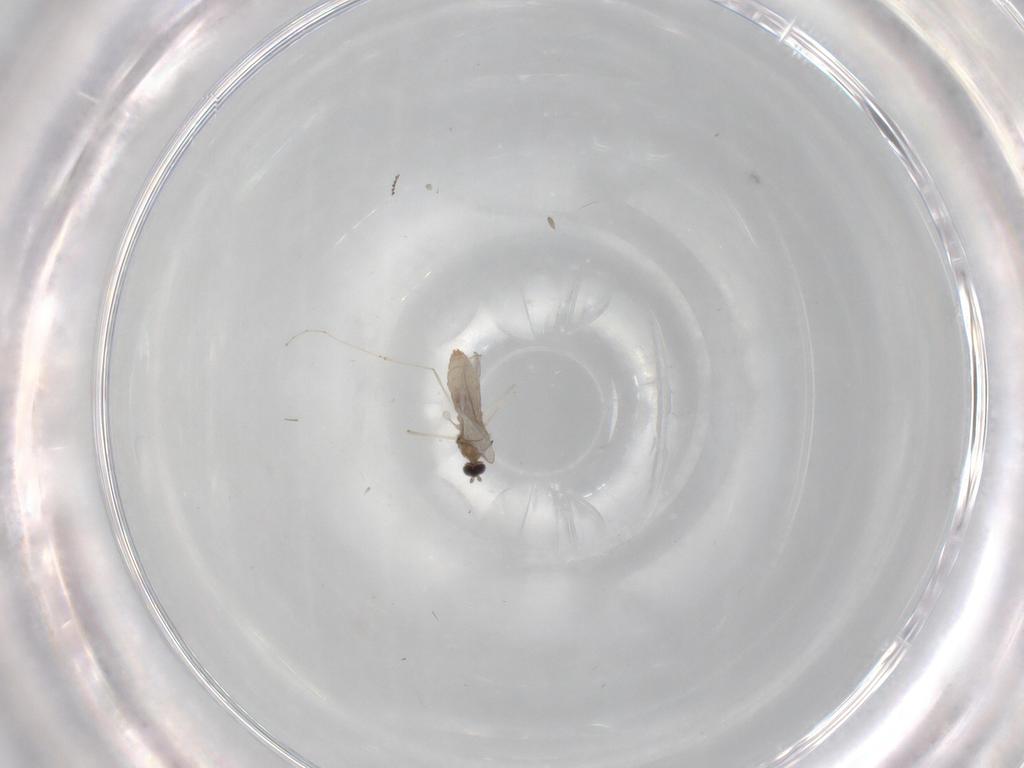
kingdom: Animalia
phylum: Arthropoda
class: Insecta
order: Diptera
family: Cecidomyiidae
